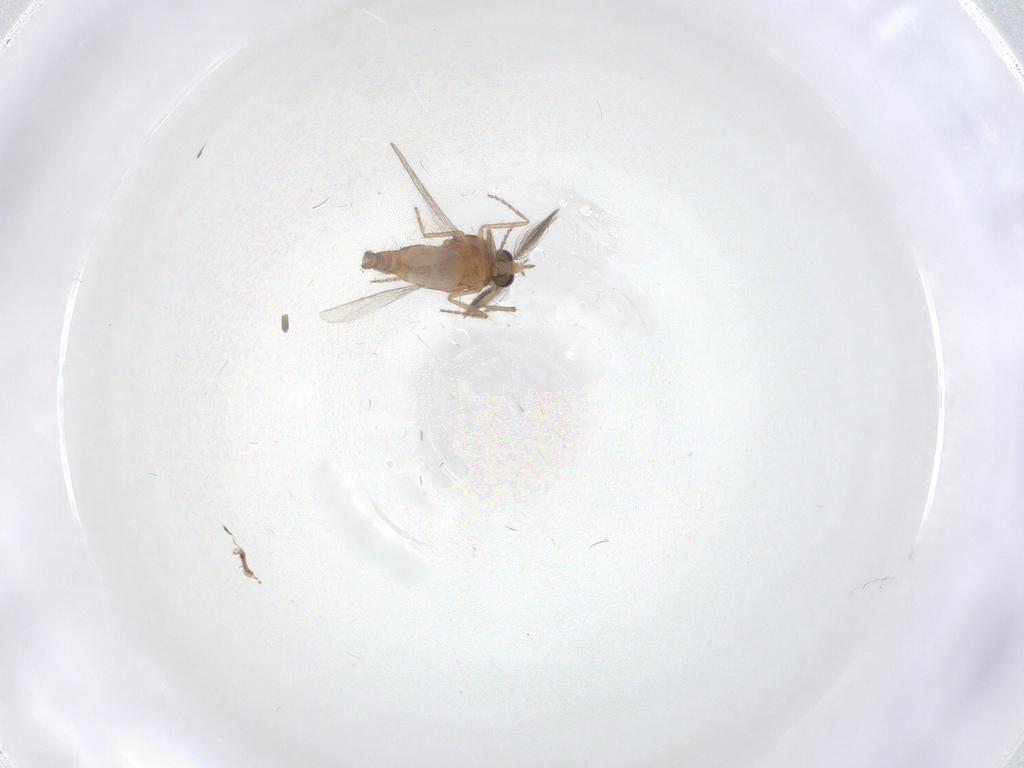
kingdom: Animalia
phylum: Arthropoda
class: Insecta
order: Diptera
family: Ceratopogonidae
